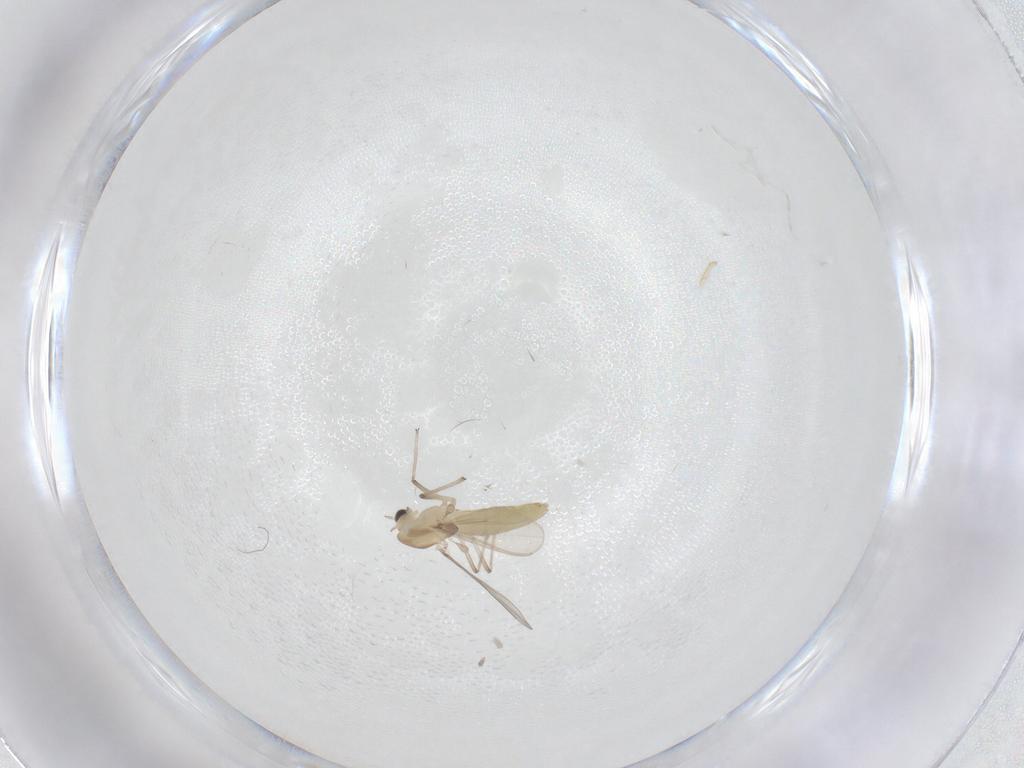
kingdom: Animalia
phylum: Arthropoda
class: Insecta
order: Diptera
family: Chironomidae
